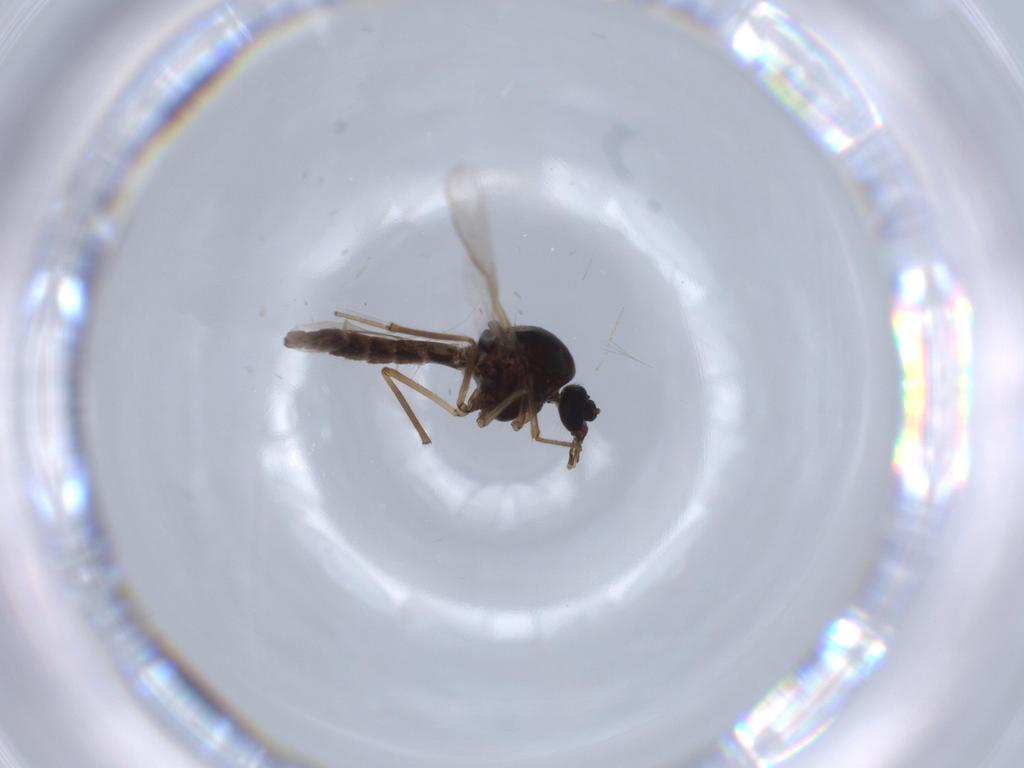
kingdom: Animalia
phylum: Arthropoda
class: Insecta
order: Diptera
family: Ceratopogonidae
